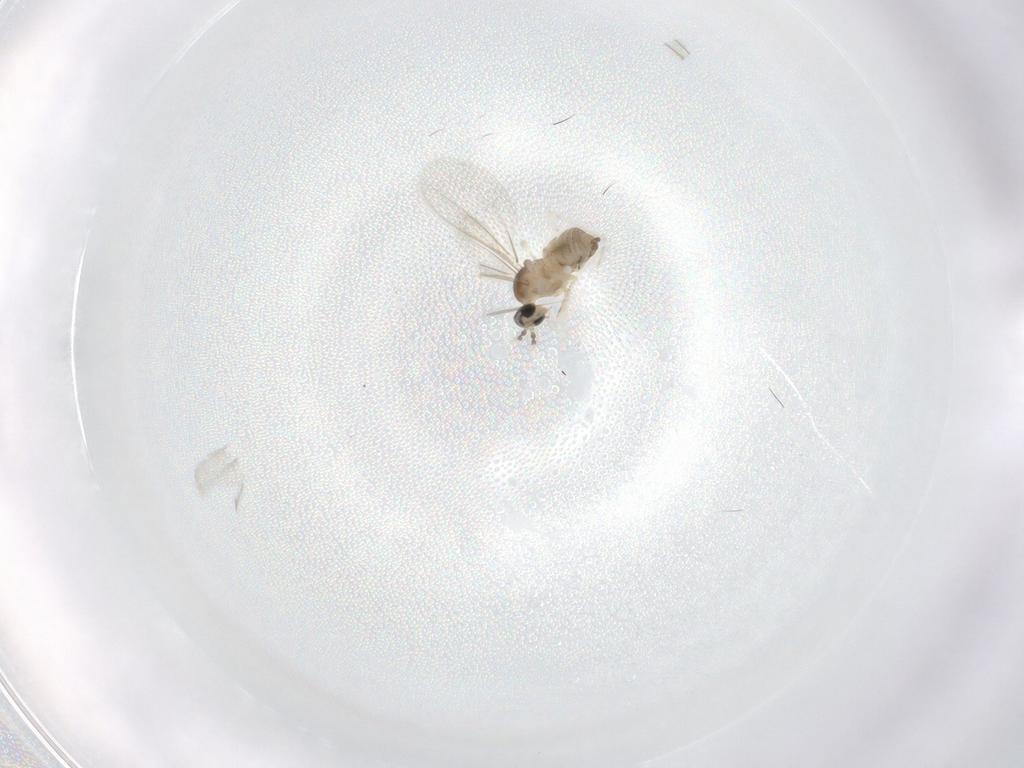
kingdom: Animalia
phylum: Arthropoda
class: Insecta
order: Diptera
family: Cecidomyiidae
